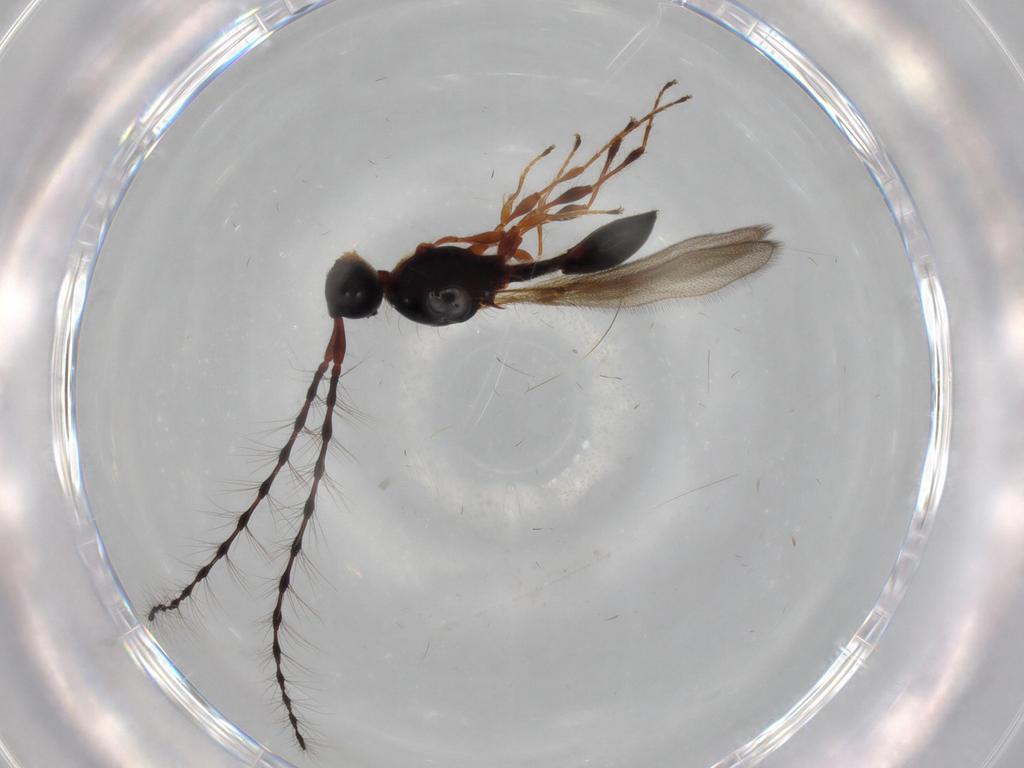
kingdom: Animalia
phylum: Arthropoda
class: Insecta
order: Hymenoptera
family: Diapriidae
